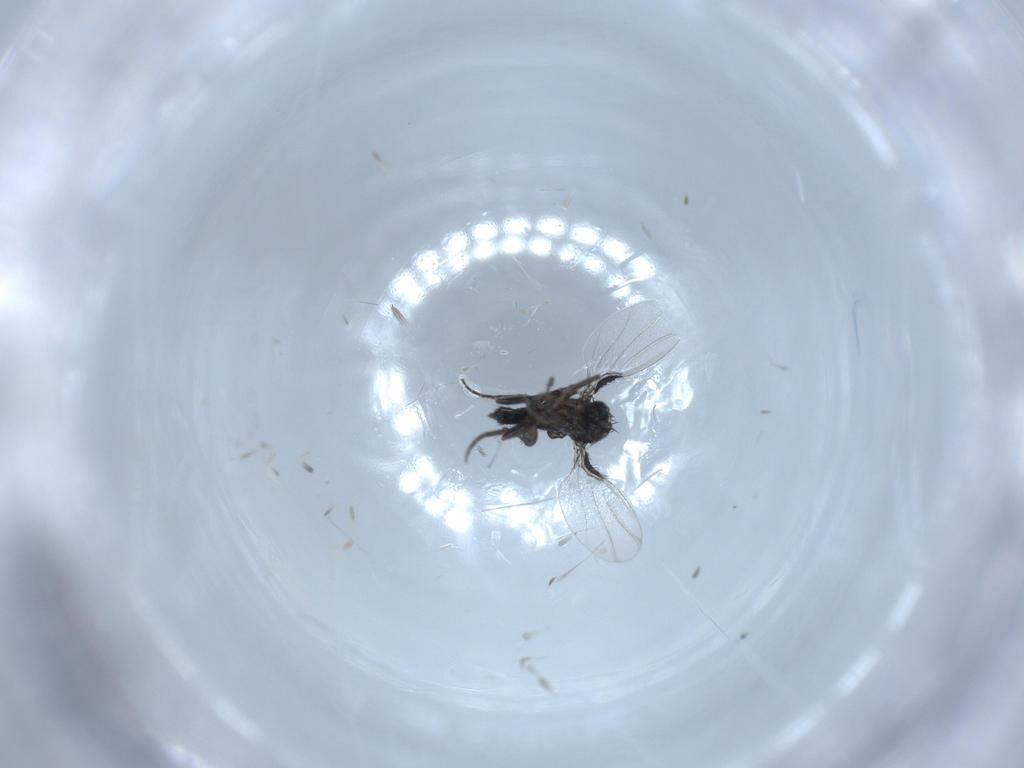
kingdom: Animalia
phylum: Arthropoda
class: Insecta
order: Diptera
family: Phoridae
